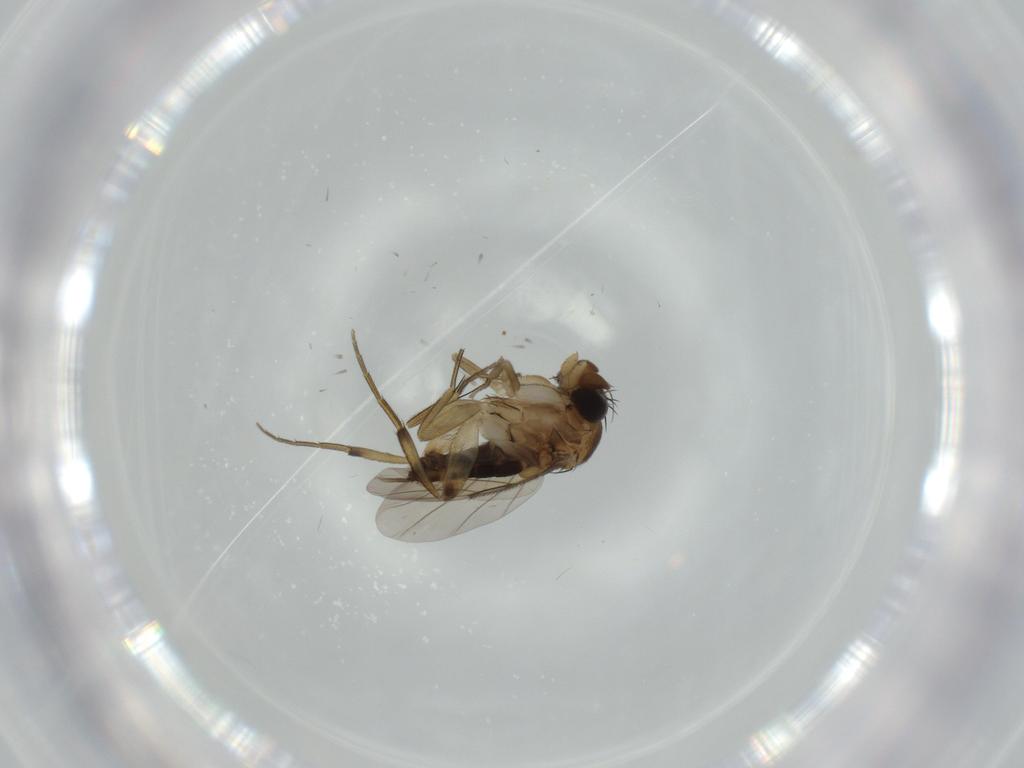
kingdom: Animalia
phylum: Arthropoda
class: Insecta
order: Diptera
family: Phoridae
